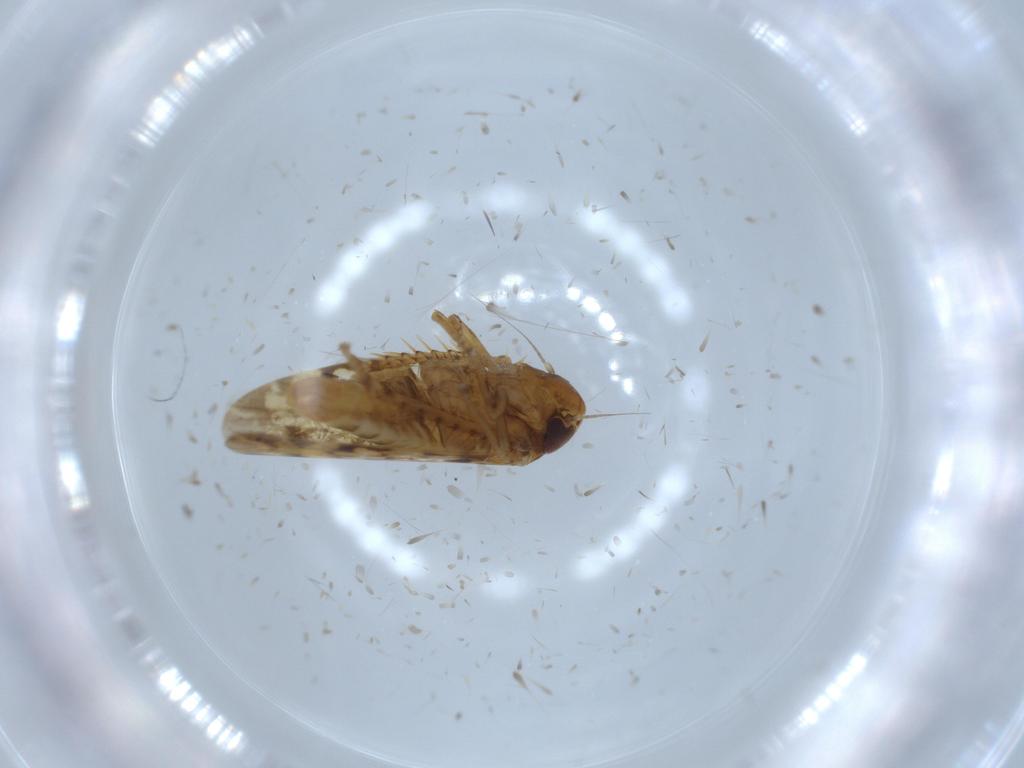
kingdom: Animalia
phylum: Arthropoda
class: Insecta
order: Hemiptera
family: Cicadellidae
